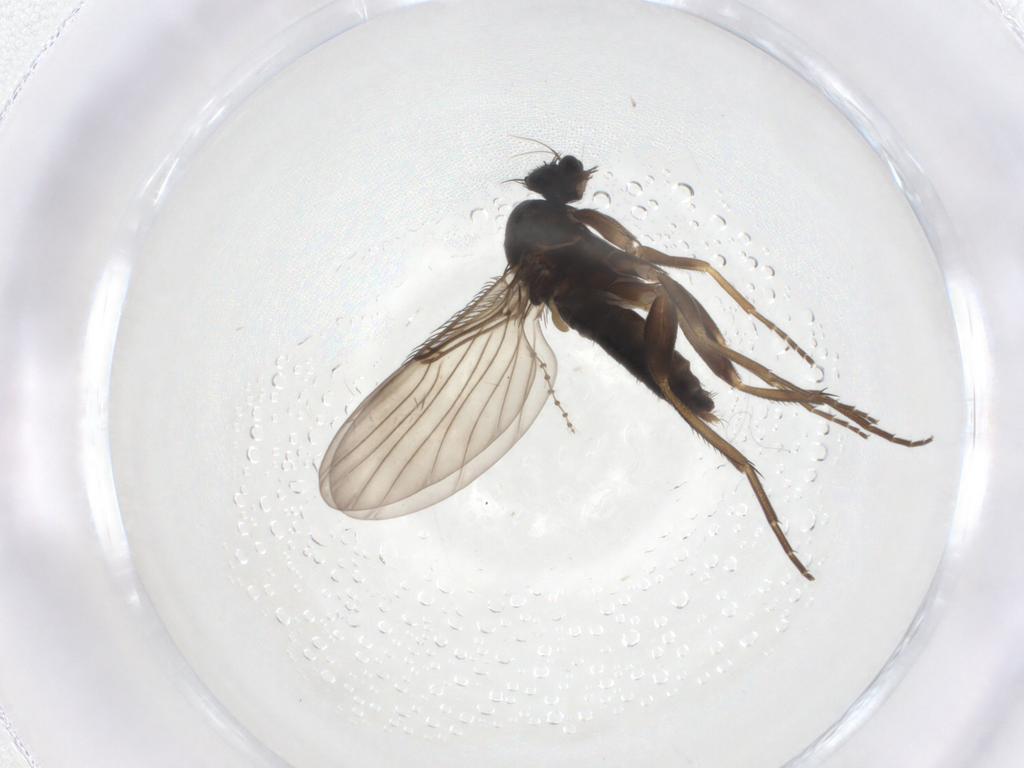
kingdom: Animalia
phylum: Arthropoda
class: Insecta
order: Diptera
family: Phoridae
